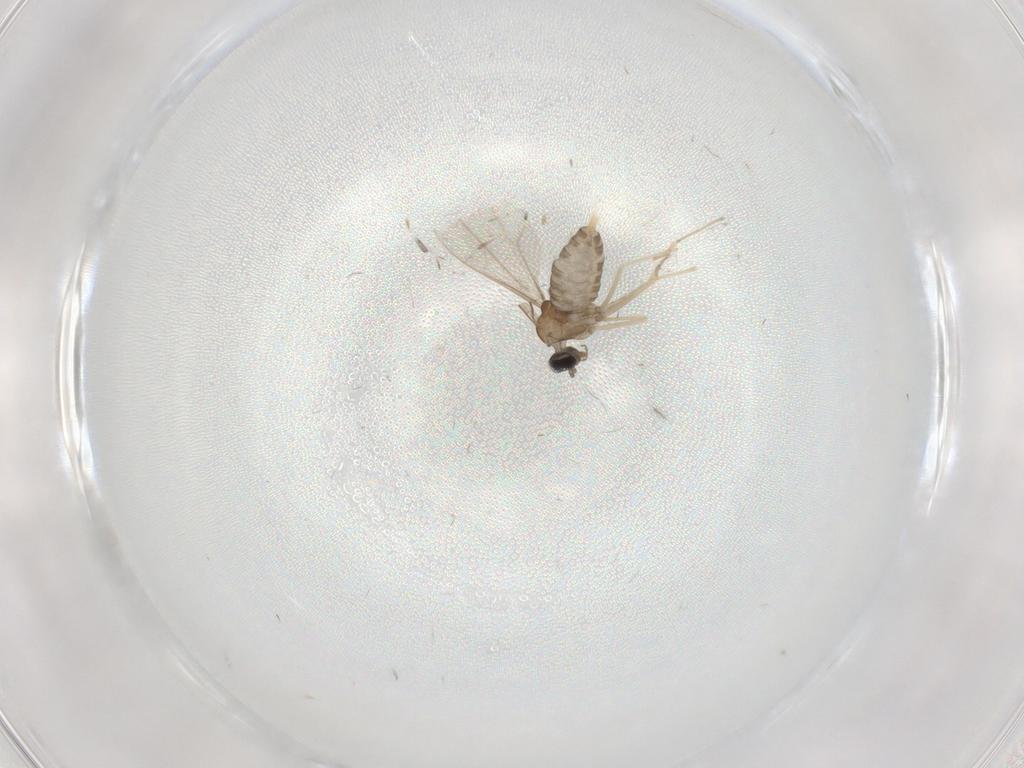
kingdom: Animalia
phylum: Arthropoda
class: Insecta
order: Diptera
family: Cecidomyiidae
